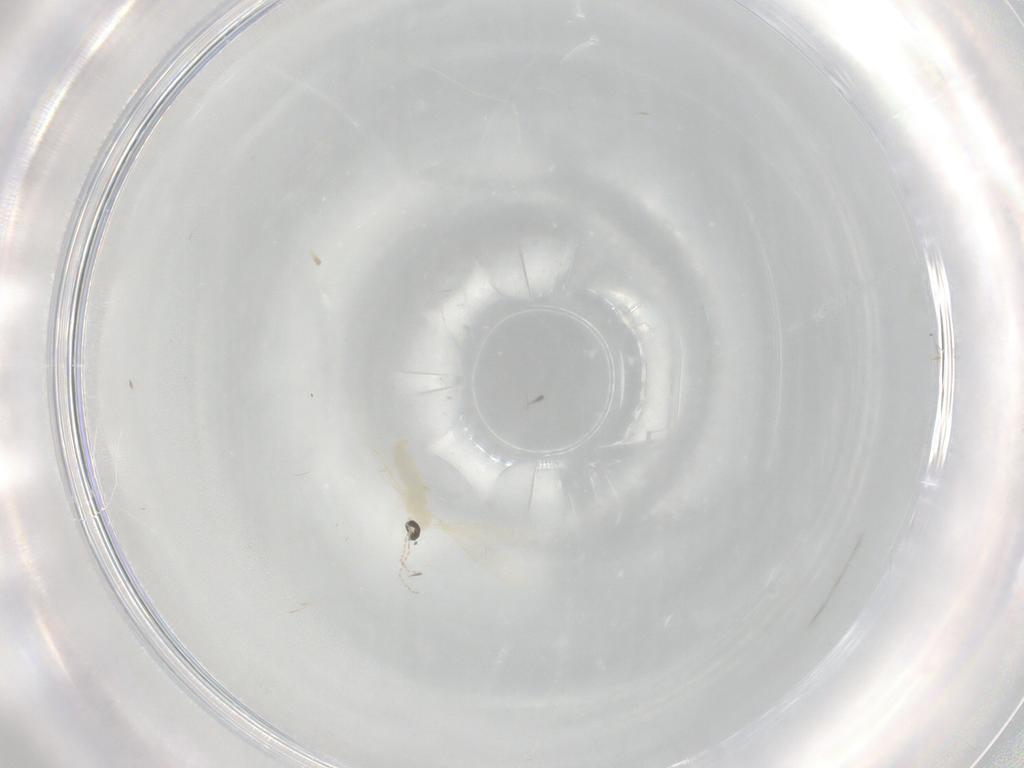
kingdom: Animalia
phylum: Arthropoda
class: Insecta
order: Diptera
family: Cecidomyiidae
